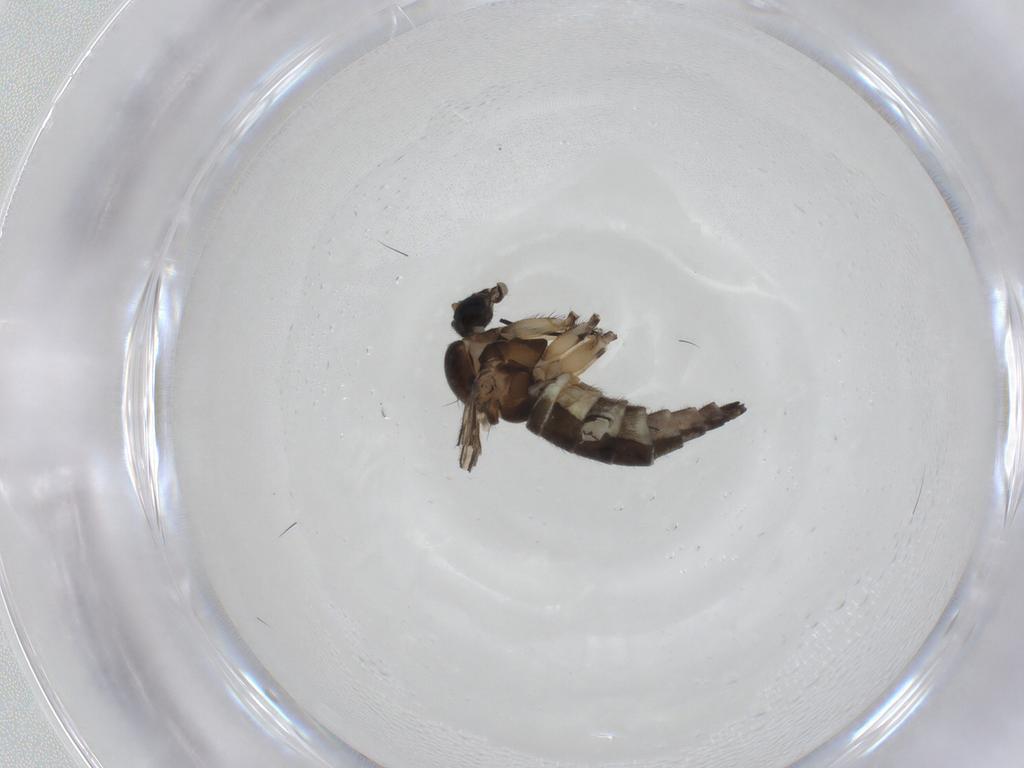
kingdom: Animalia
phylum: Arthropoda
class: Insecta
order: Diptera
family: Sciaridae
